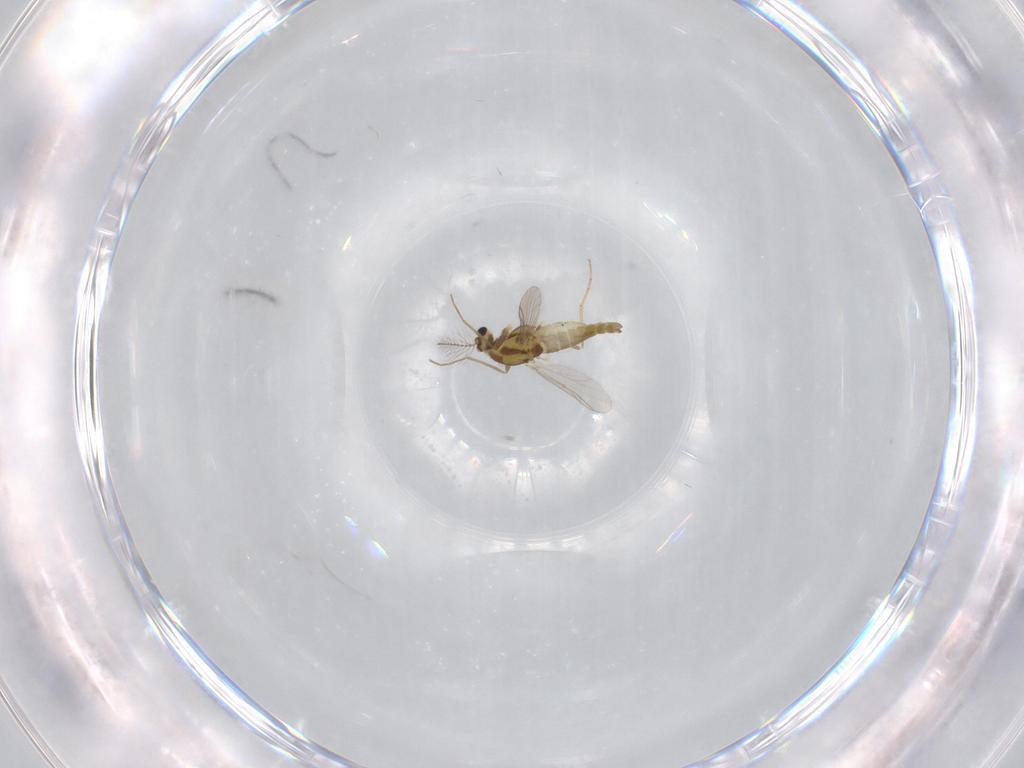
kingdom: Animalia
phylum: Arthropoda
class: Insecta
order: Diptera
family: Chironomidae
